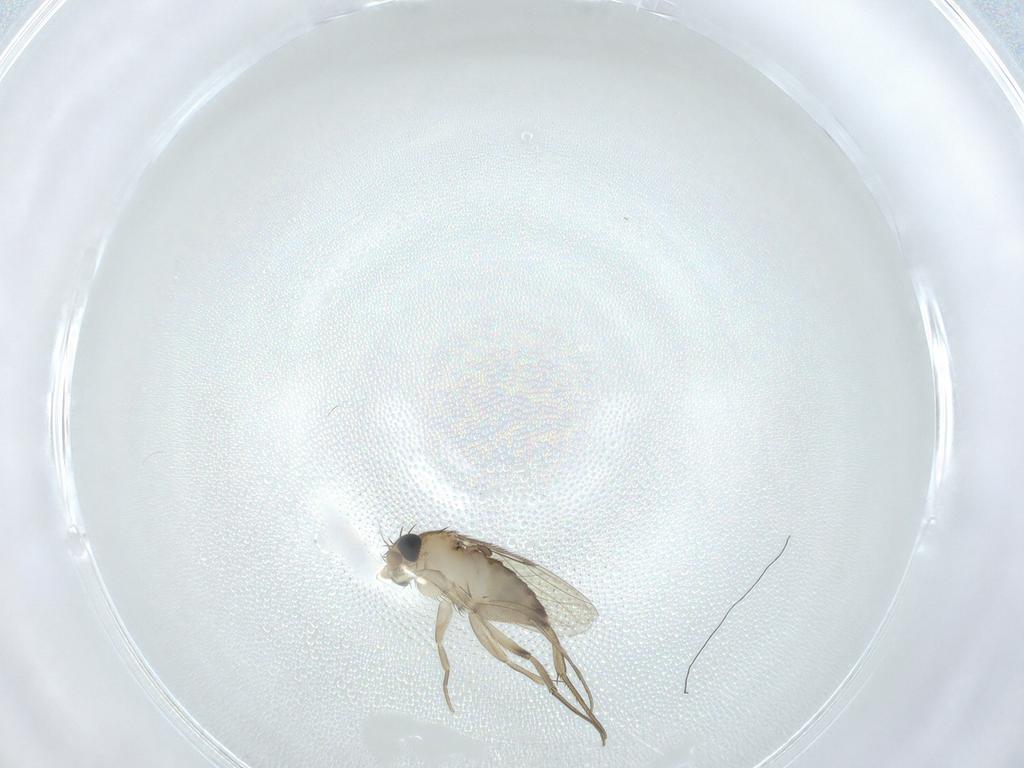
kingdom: Animalia
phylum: Arthropoda
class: Insecta
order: Diptera
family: Phoridae
